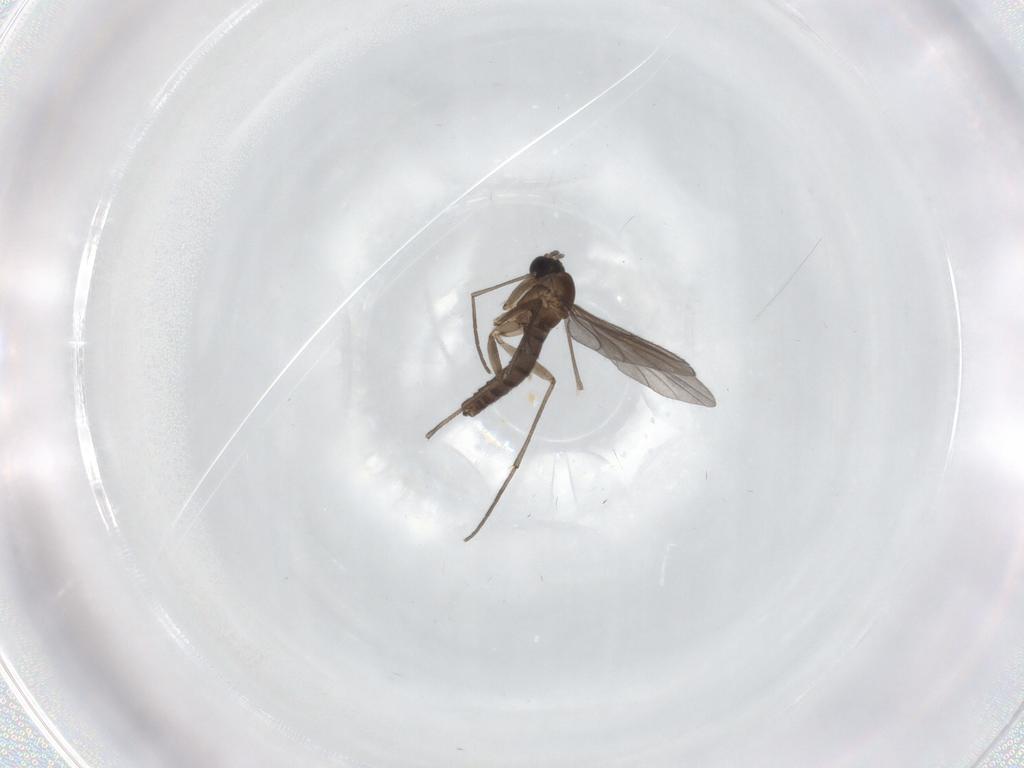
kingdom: Animalia
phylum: Arthropoda
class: Insecta
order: Diptera
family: Sciaridae
